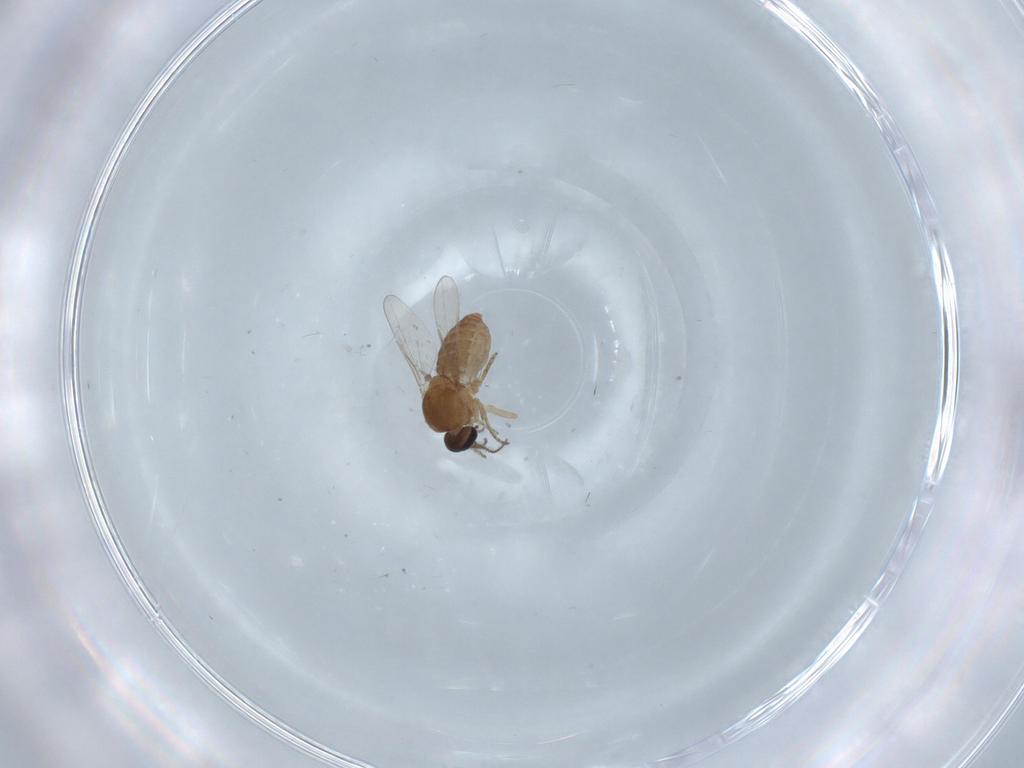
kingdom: Animalia
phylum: Arthropoda
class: Insecta
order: Diptera
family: Ceratopogonidae
